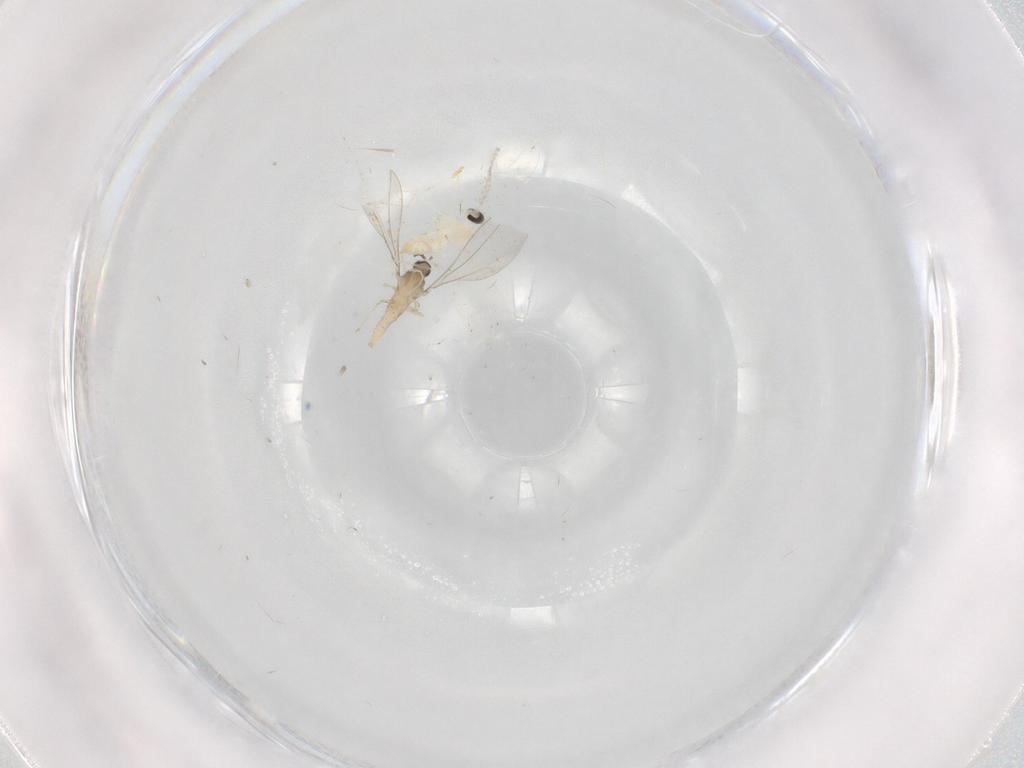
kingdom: Animalia
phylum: Arthropoda
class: Insecta
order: Diptera
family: Cecidomyiidae
